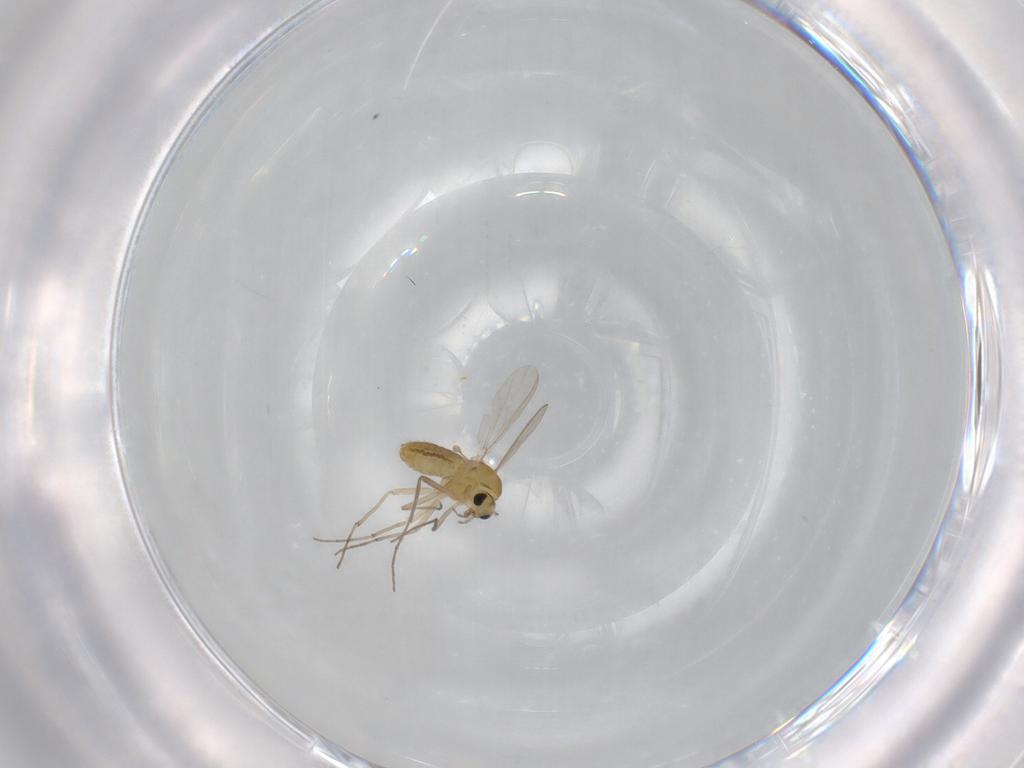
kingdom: Animalia
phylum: Arthropoda
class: Insecta
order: Diptera
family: Chironomidae
